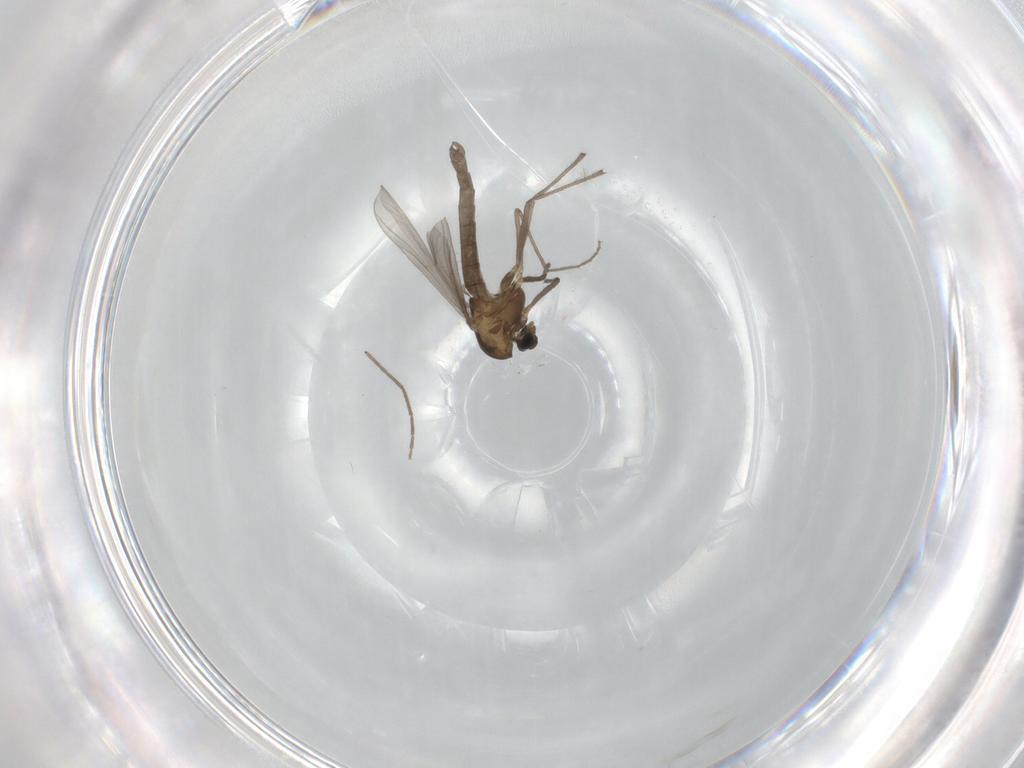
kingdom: Animalia
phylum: Arthropoda
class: Insecta
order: Diptera
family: Chironomidae
